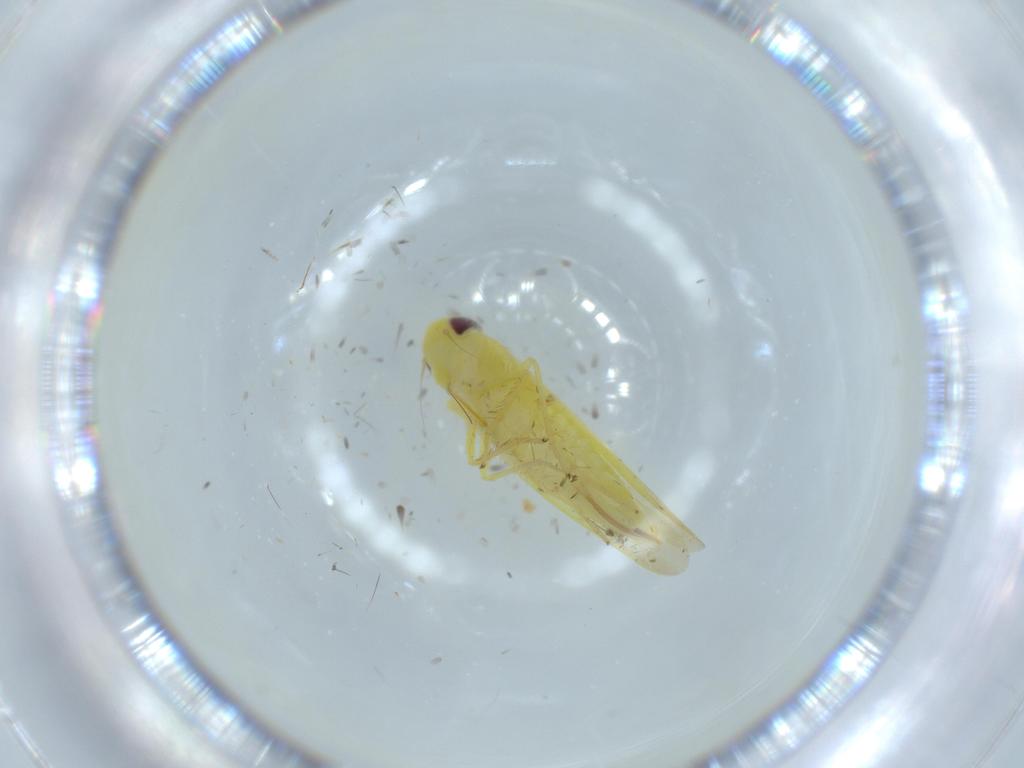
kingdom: Animalia
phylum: Arthropoda
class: Insecta
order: Hemiptera
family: Cicadellidae
